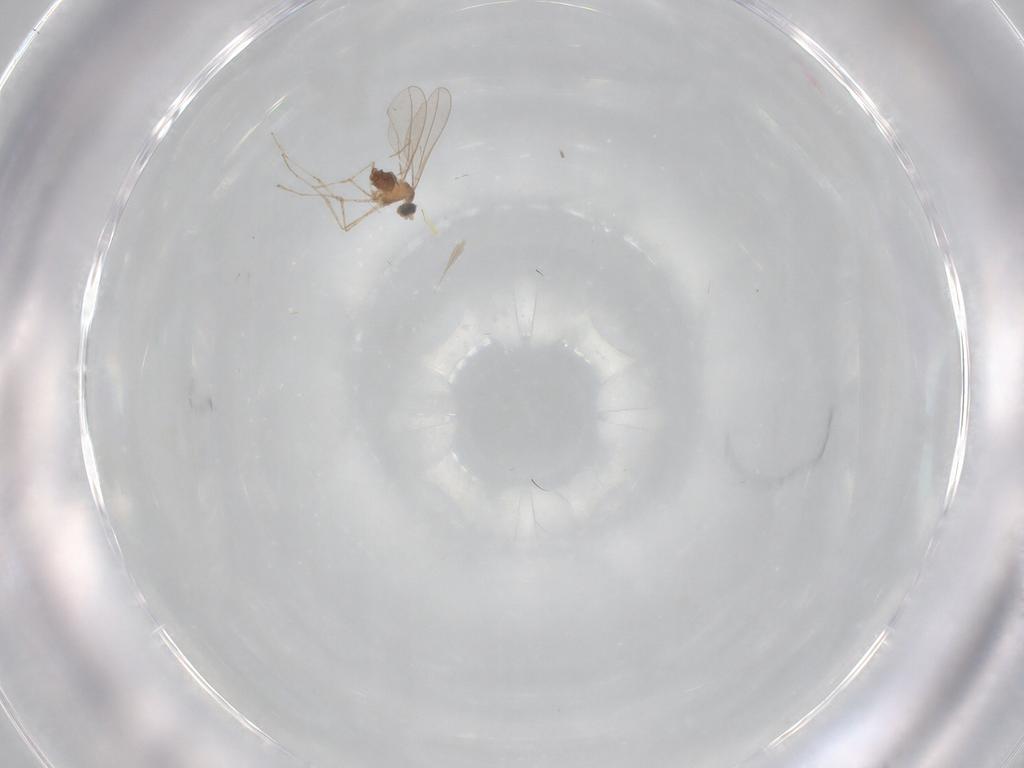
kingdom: Animalia
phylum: Arthropoda
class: Insecta
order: Diptera
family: Cecidomyiidae
